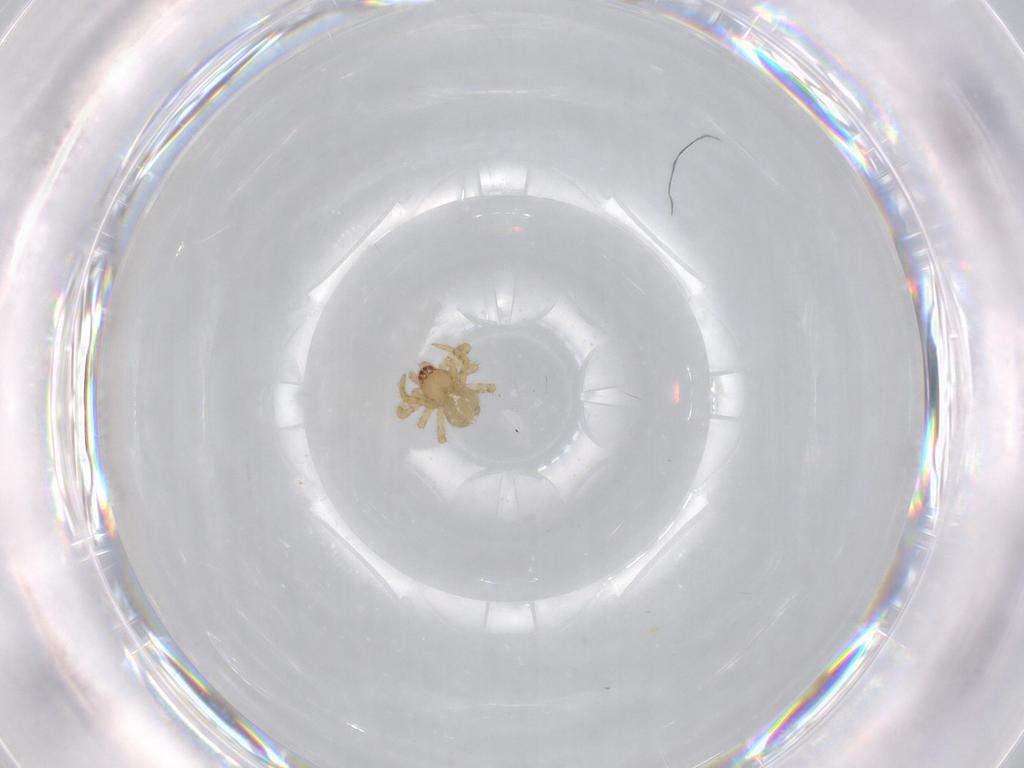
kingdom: Animalia
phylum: Arthropoda
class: Arachnida
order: Araneae
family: Theridiidae
